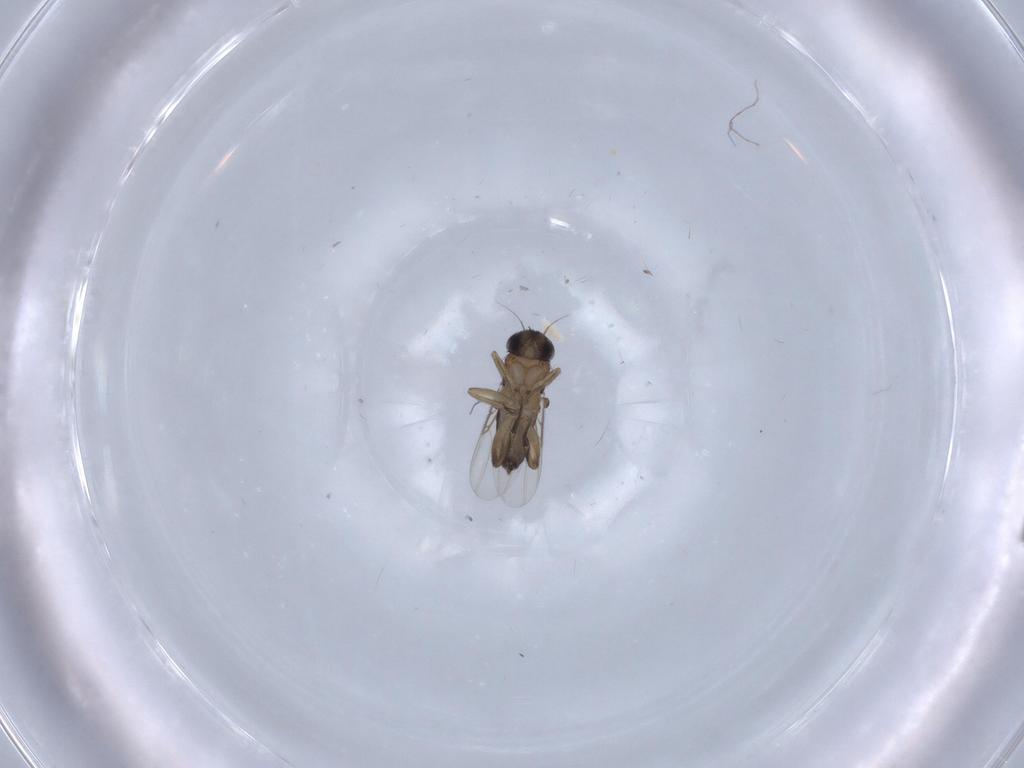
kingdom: Animalia
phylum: Arthropoda
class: Insecta
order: Diptera
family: Phoridae
